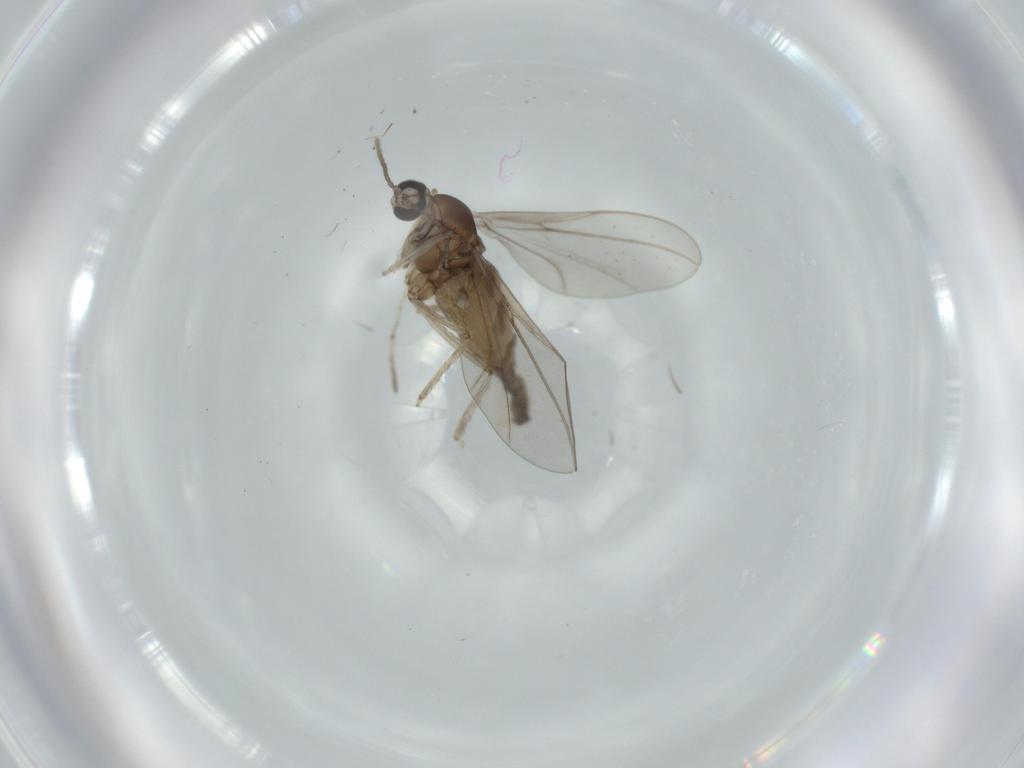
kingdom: Animalia
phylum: Arthropoda
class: Insecta
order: Diptera
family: Cecidomyiidae
